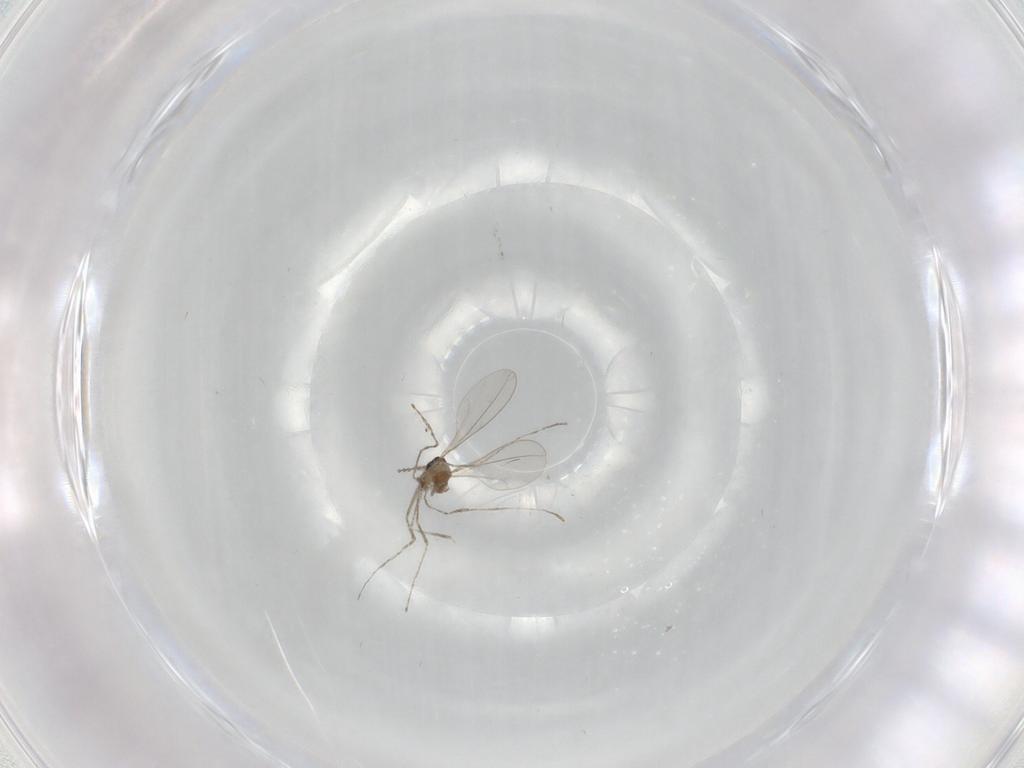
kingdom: Animalia
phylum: Arthropoda
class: Insecta
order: Diptera
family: Cecidomyiidae
